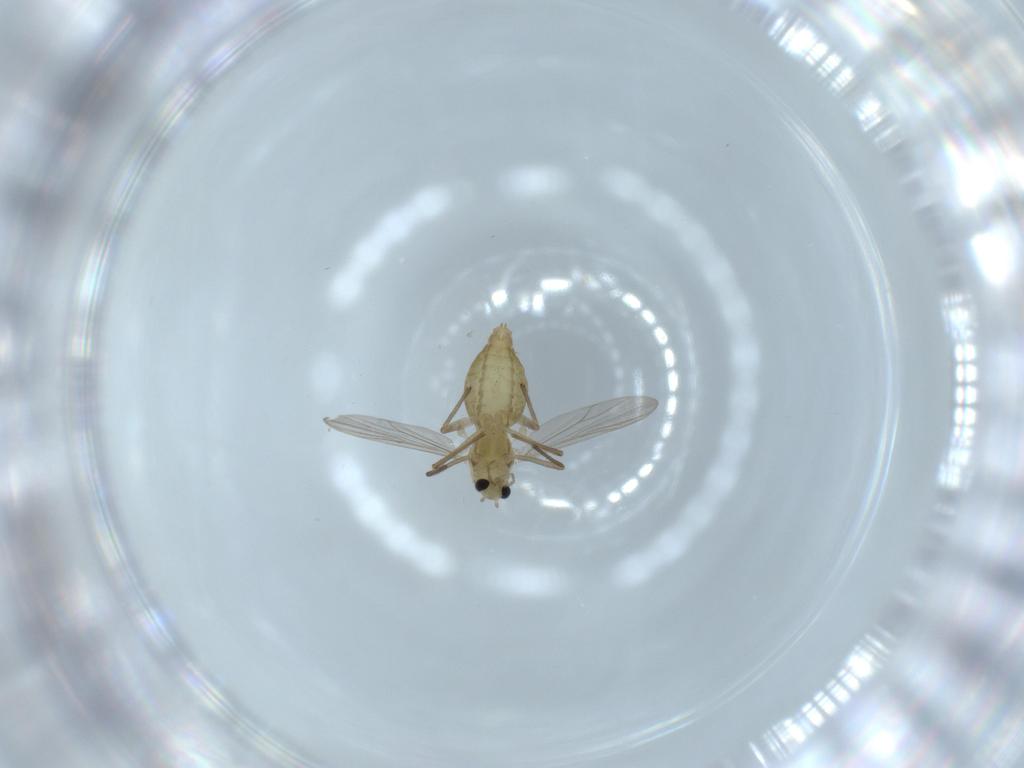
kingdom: Animalia
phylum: Arthropoda
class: Insecta
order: Diptera
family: Chironomidae
